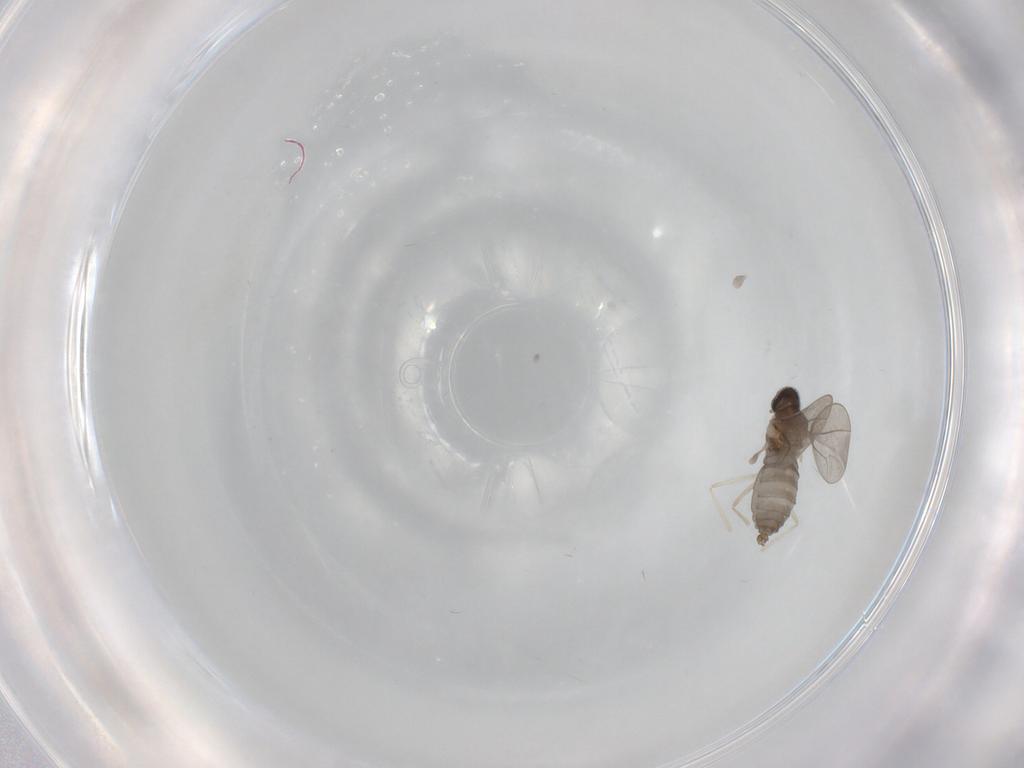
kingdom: Animalia
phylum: Arthropoda
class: Insecta
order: Diptera
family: Ceratopogonidae
